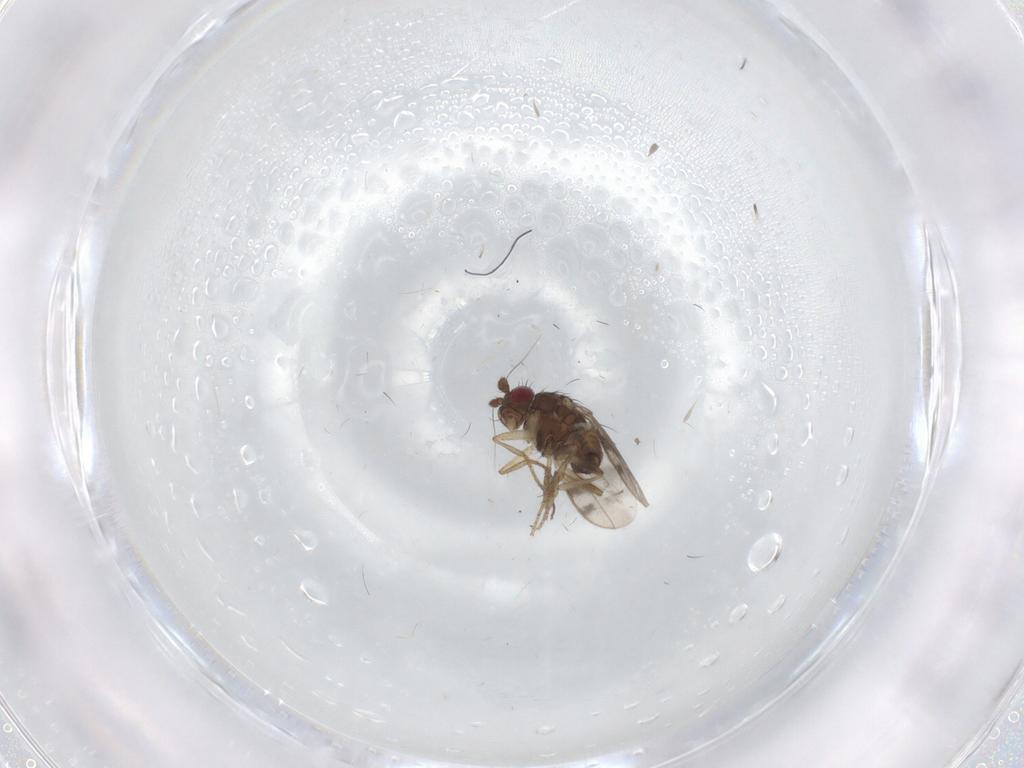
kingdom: Animalia
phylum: Arthropoda
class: Insecta
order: Diptera
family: Sphaeroceridae
